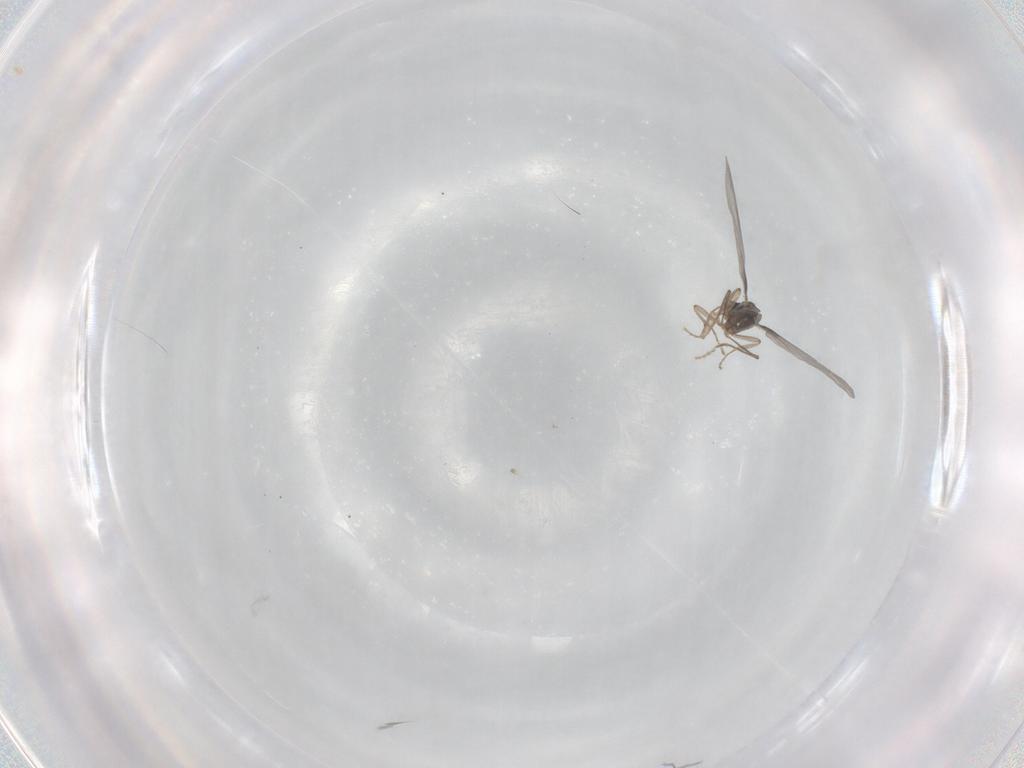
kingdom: Animalia
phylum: Arthropoda
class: Insecta
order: Diptera
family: Phoridae
